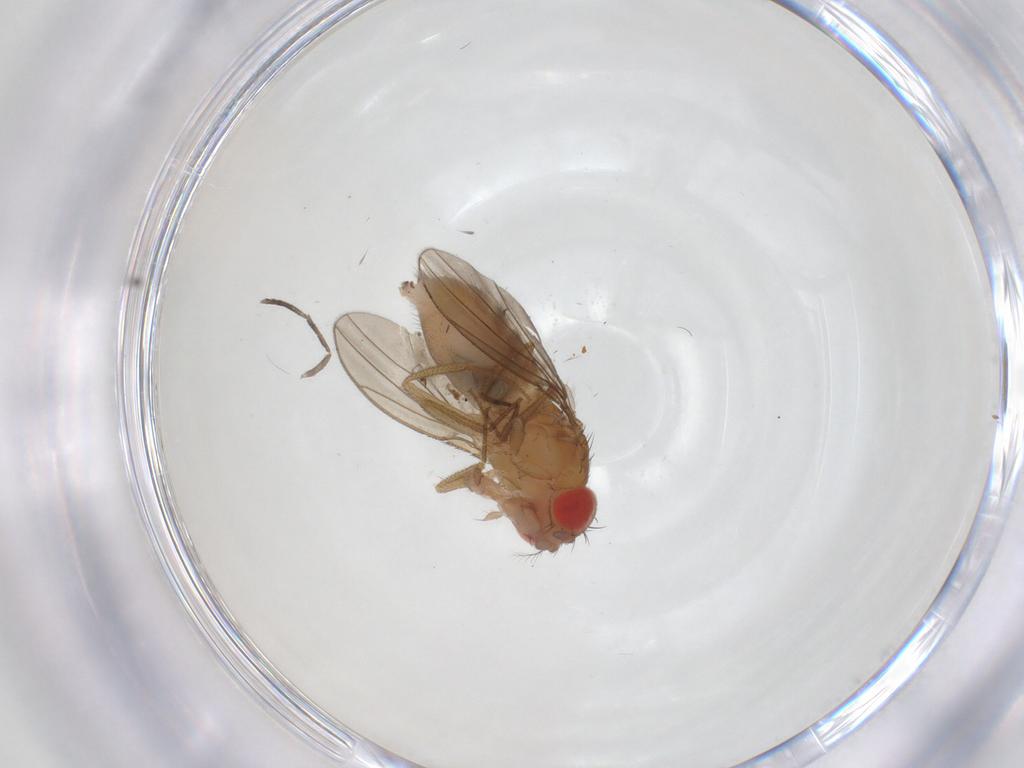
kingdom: Animalia
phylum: Arthropoda
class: Insecta
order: Diptera
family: Drosophilidae
